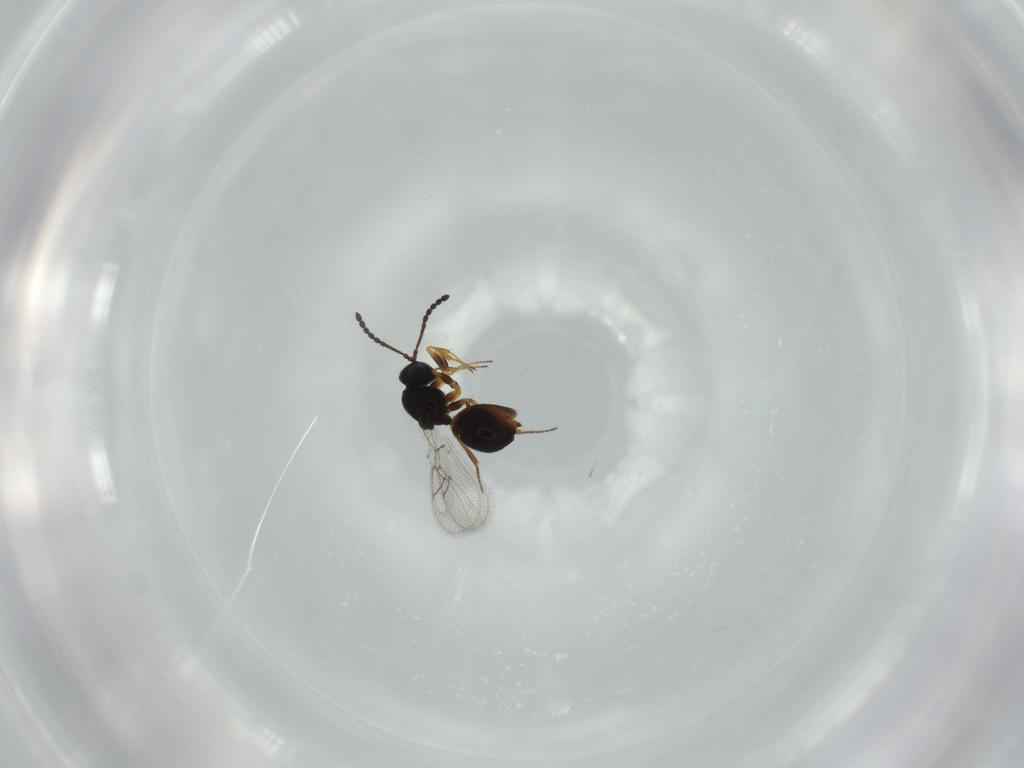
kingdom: Animalia
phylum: Arthropoda
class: Insecta
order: Hymenoptera
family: Figitidae
